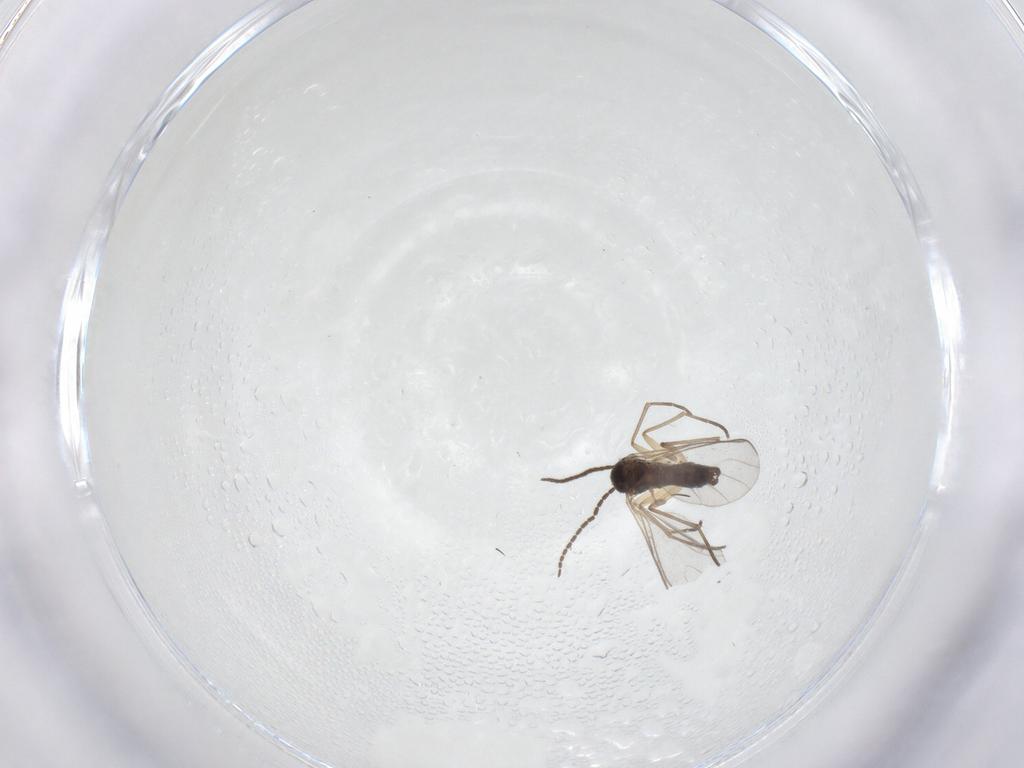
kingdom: Animalia
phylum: Arthropoda
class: Insecta
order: Diptera
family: Sciaridae
